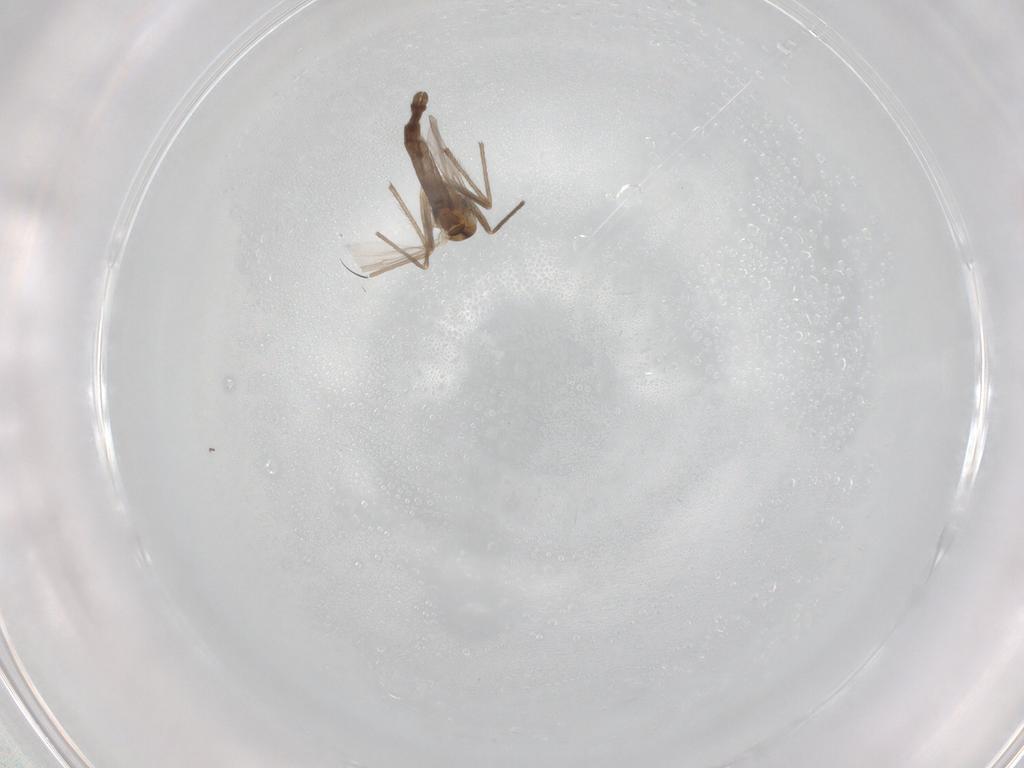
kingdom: Animalia
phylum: Arthropoda
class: Insecta
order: Diptera
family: Chironomidae
